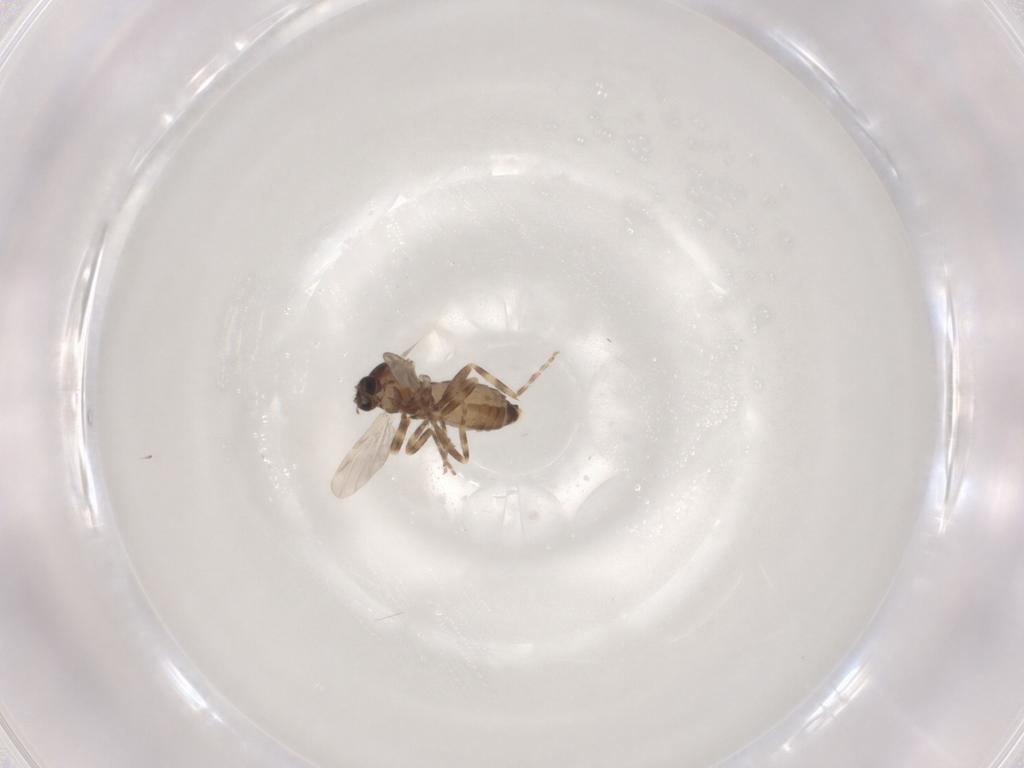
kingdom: Animalia
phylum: Arthropoda
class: Insecta
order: Diptera
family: Ceratopogonidae
